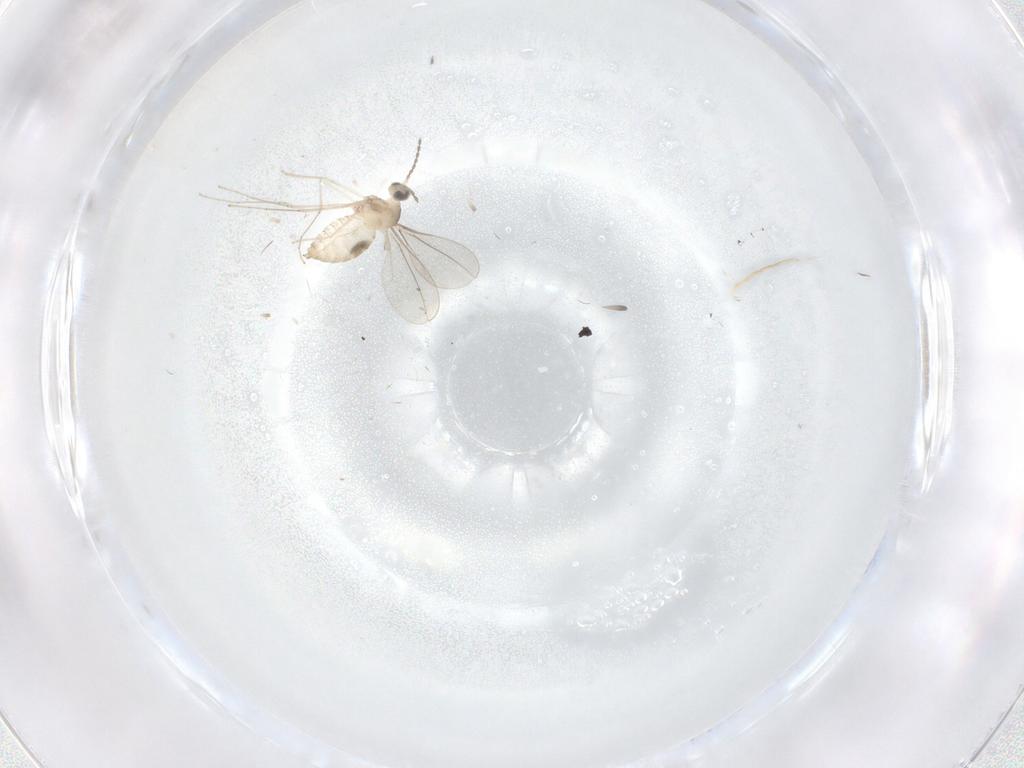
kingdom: Animalia
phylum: Arthropoda
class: Insecta
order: Diptera
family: Cecidomyiidae
